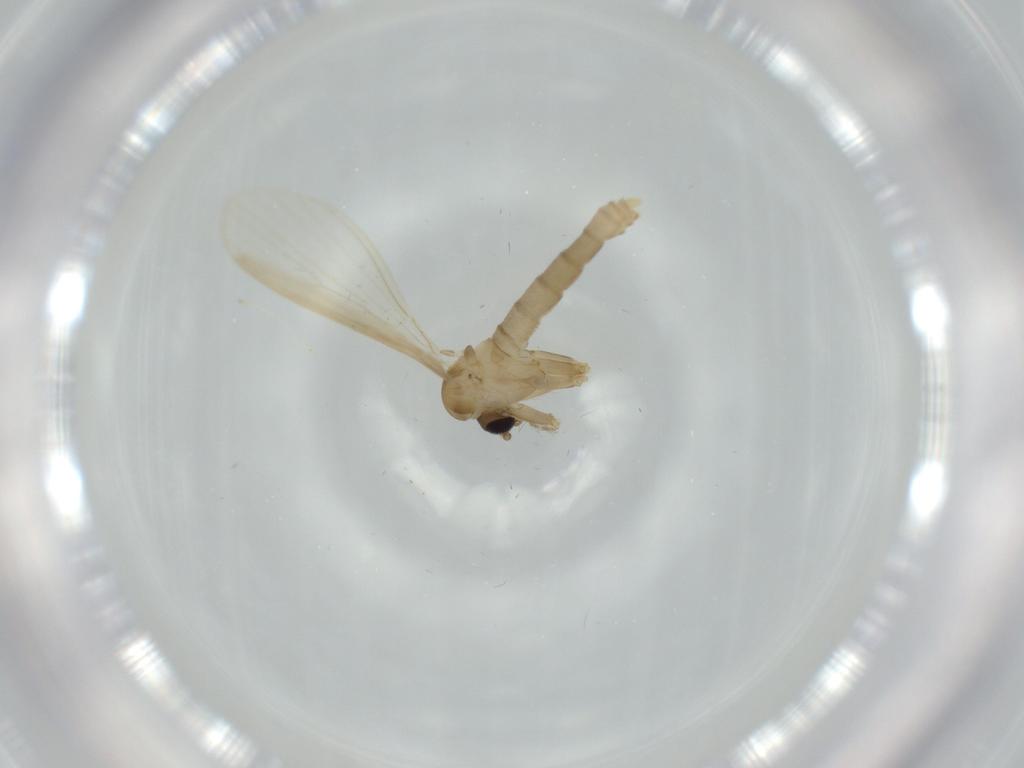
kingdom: Animalia
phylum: Arthropoda
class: Insecta
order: Diptera
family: Psychodidae
